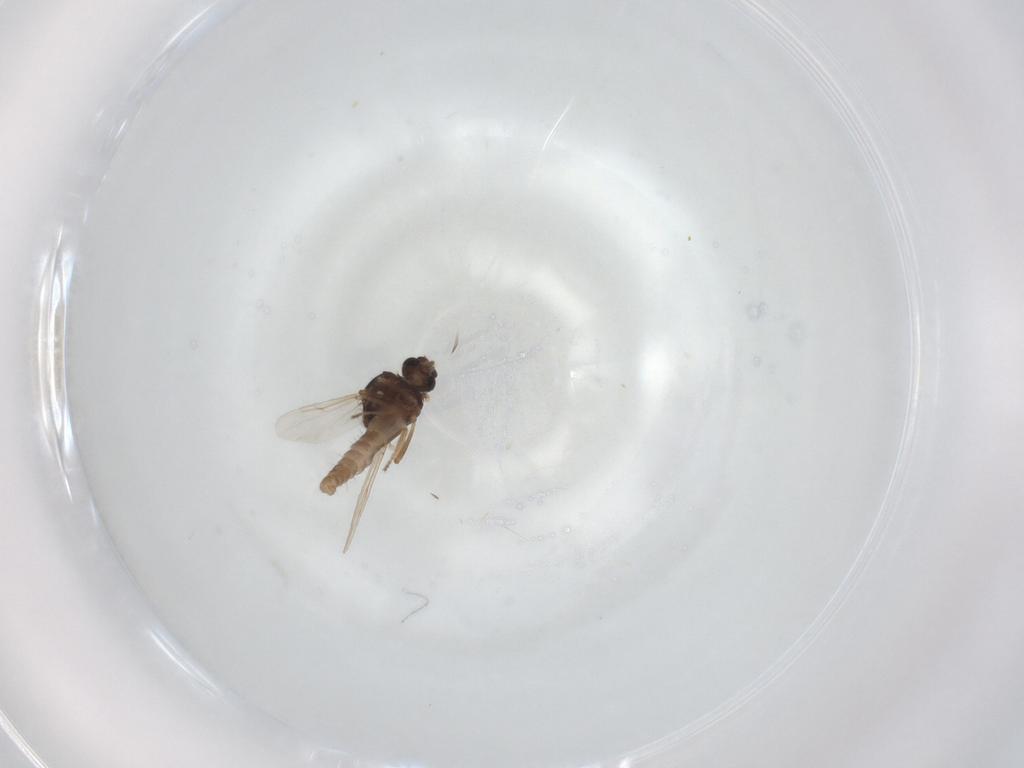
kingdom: Animalia
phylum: Arthropoda
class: Insecta
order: Diptera
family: Ceratopogonidae
